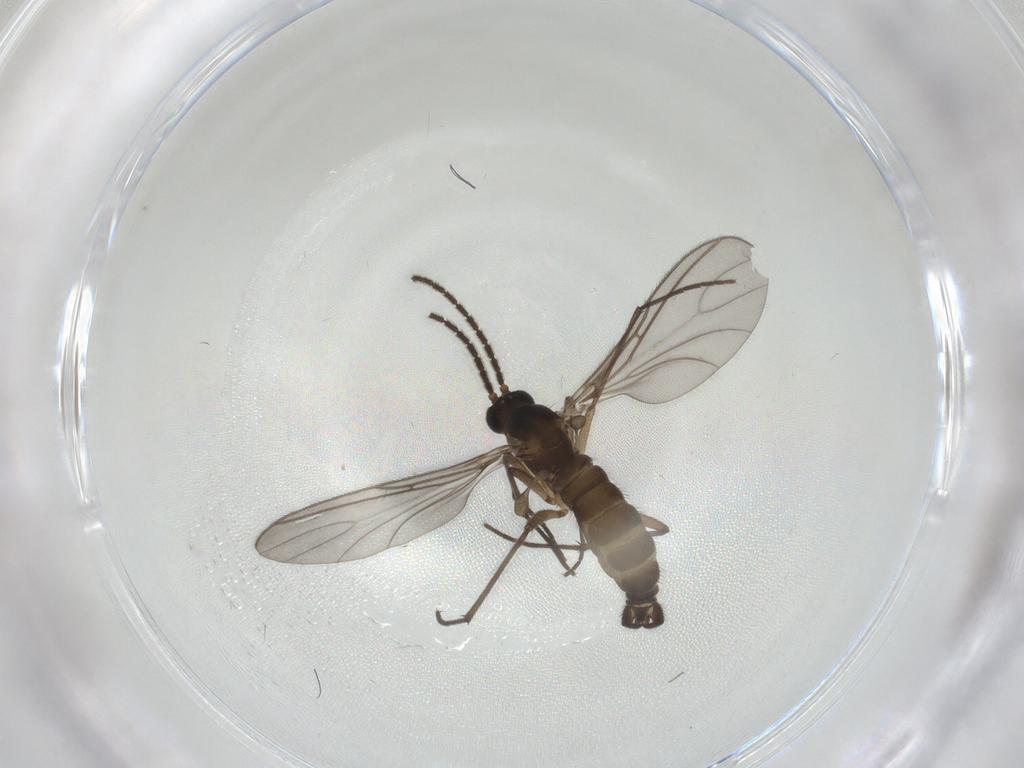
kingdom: Animalia
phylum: Arthropoda
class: Insecta
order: Diptera
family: Sciaridae
